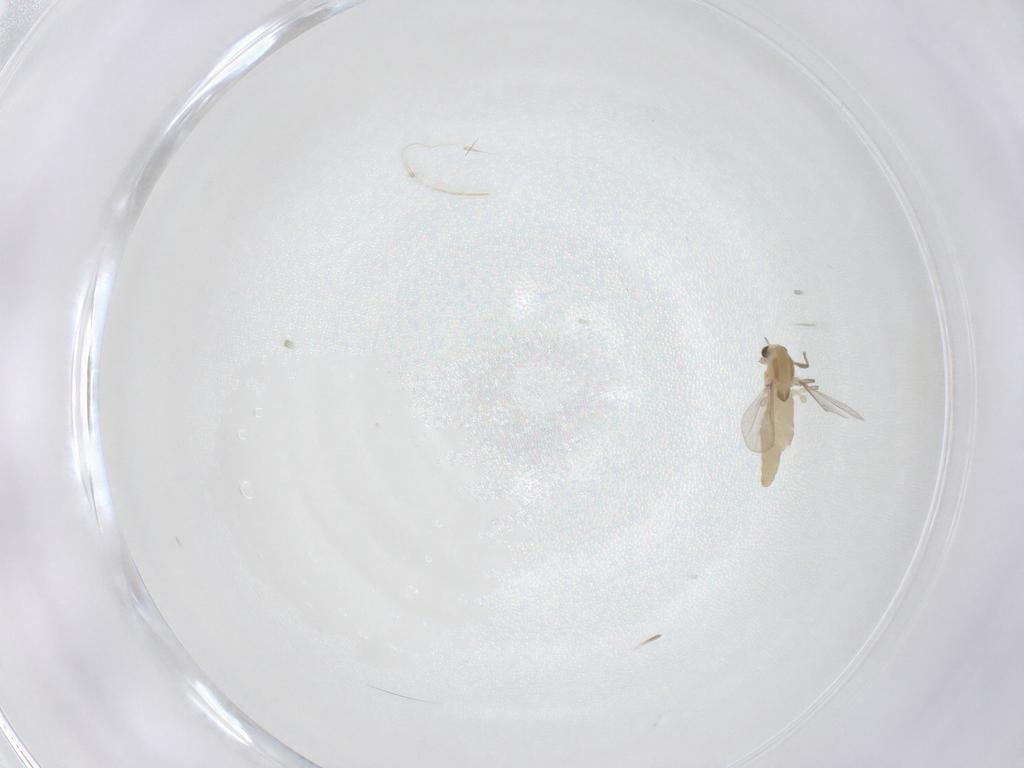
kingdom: Animalia
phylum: Arthropoda
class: Insecta
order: Diptera
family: Chironomidae
